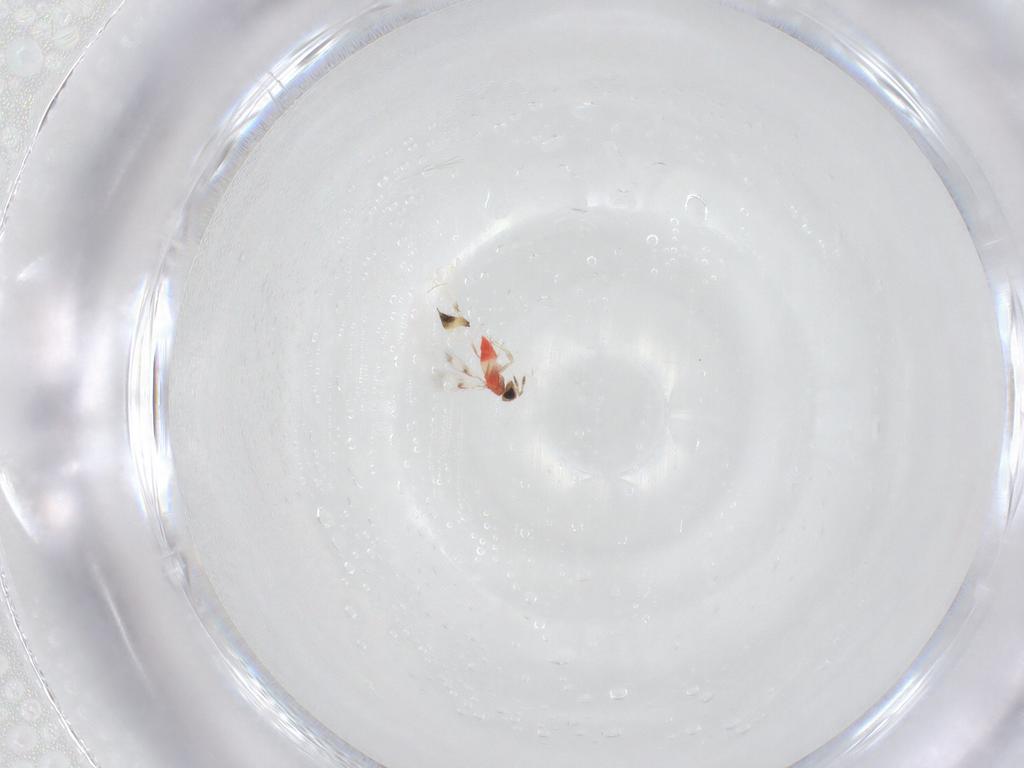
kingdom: Animalia
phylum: Arthropoda
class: Insecta
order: Hymenoptera
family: Mymaridae
